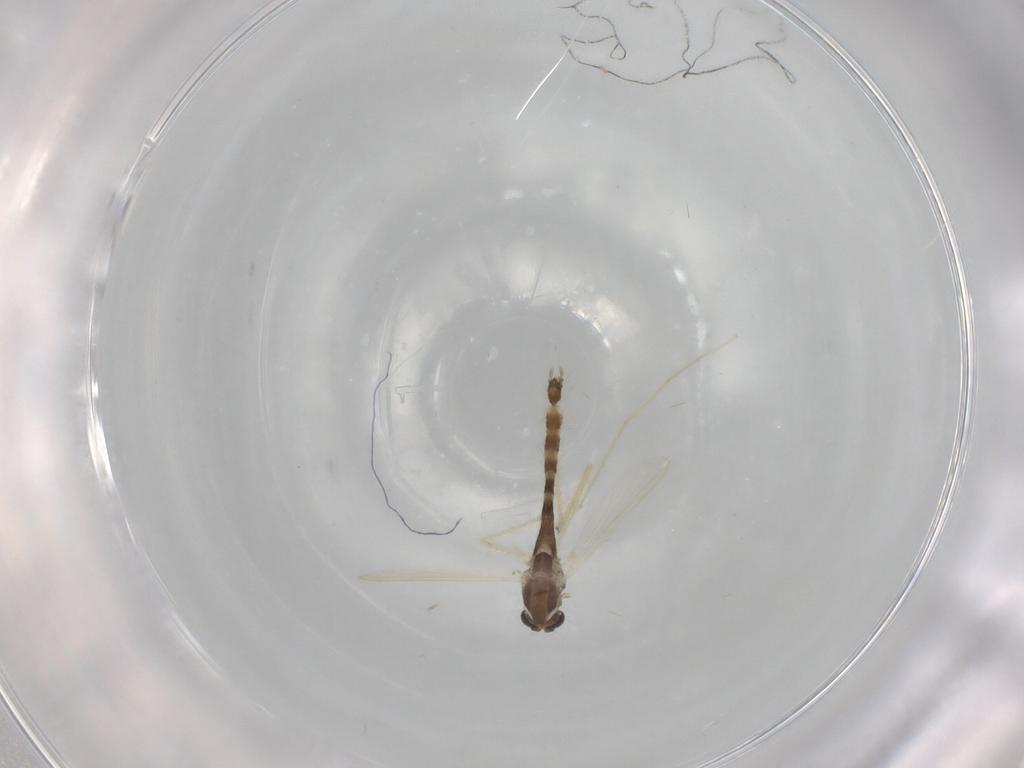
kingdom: Animalia
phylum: Arthropoda
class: Insecta
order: Diptera
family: Chironomidae
